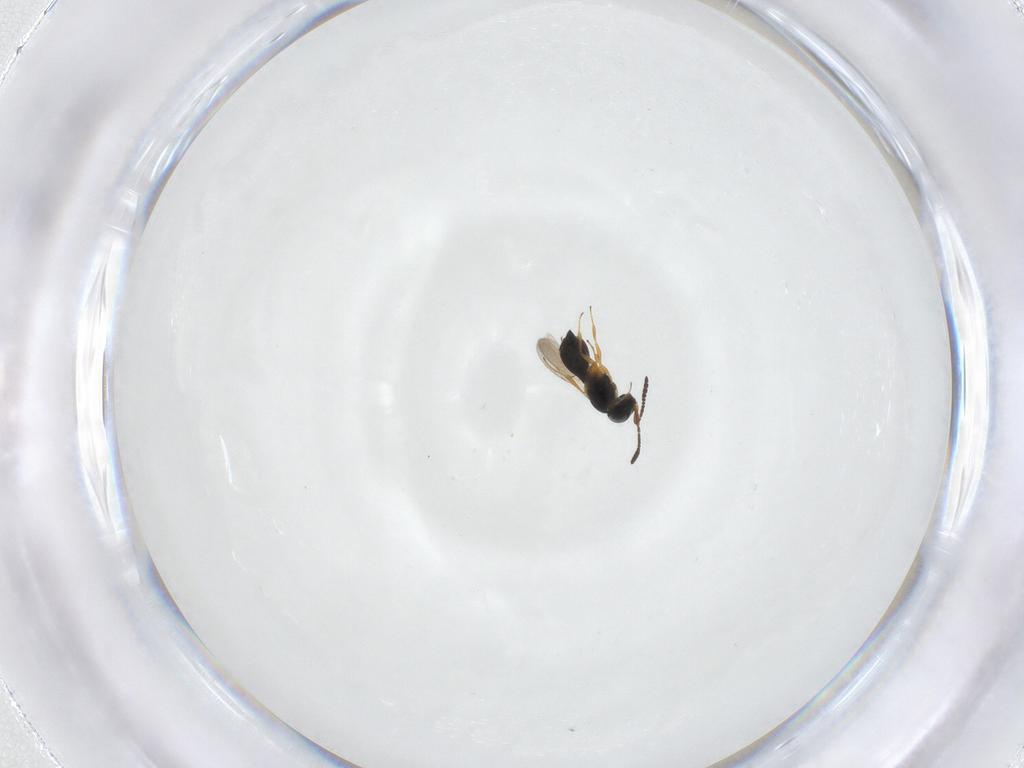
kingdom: Animalia
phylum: Arthropoda
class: Insecta
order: Hymenoptera
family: Scelionidae
